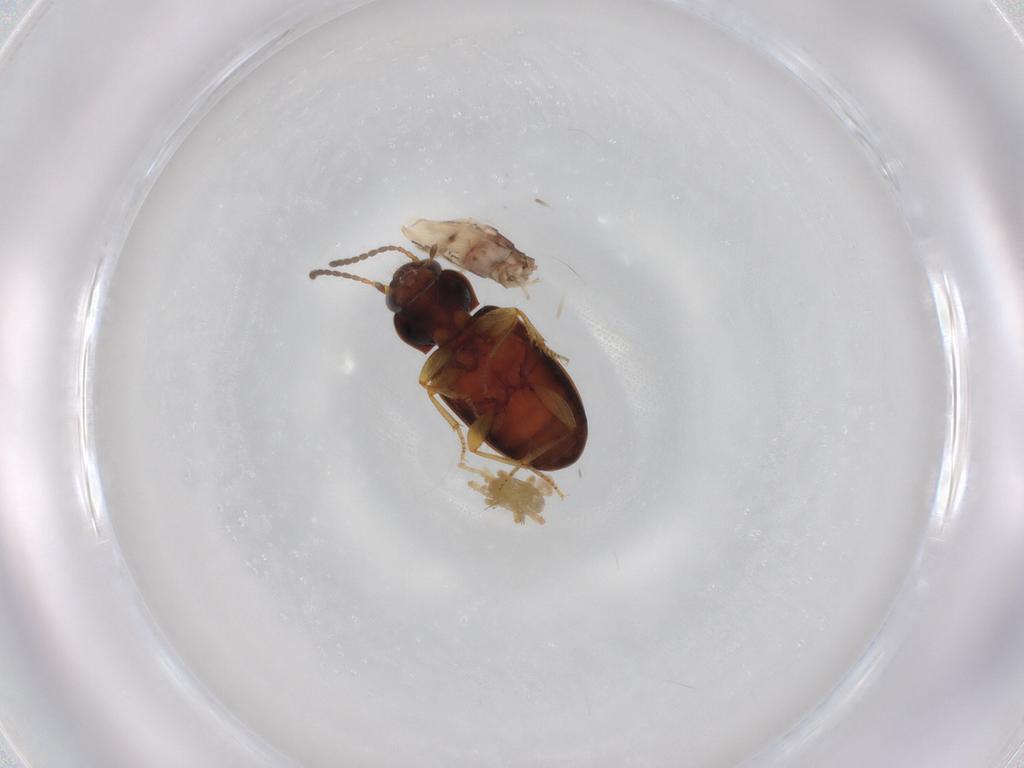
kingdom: Animalia
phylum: Arthropoda
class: Insecta
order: Coleoptera
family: Carabidae
